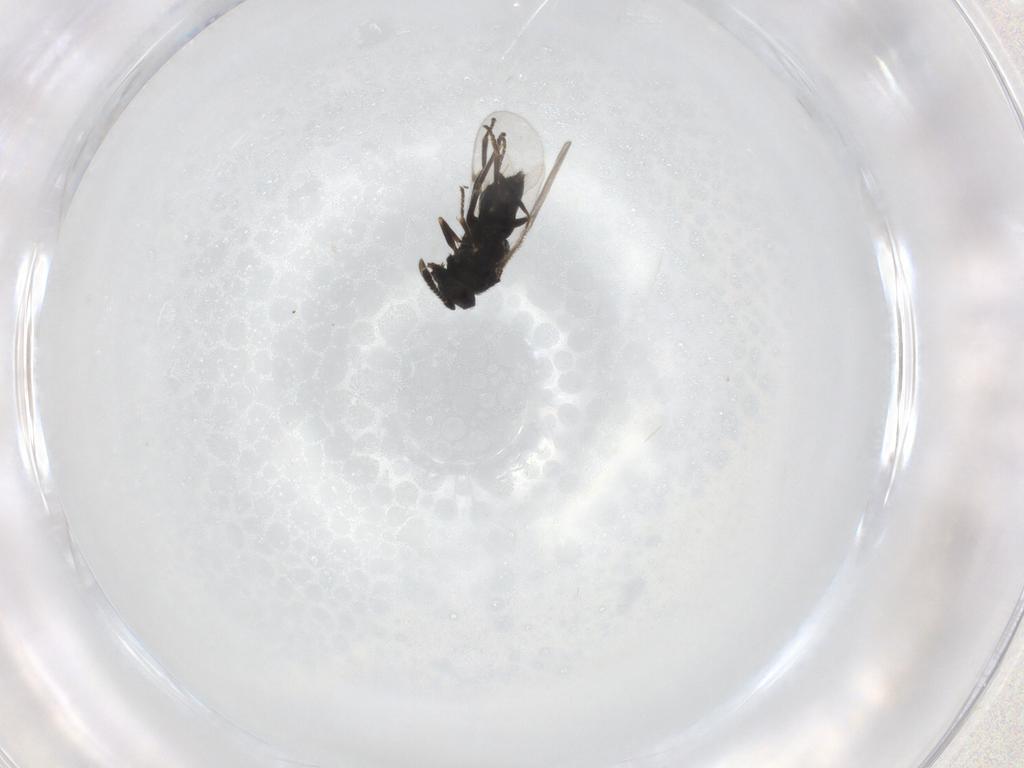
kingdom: Animalia
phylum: Arthropoda
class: Insecta
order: Hymenoptera
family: Encyrtidae
